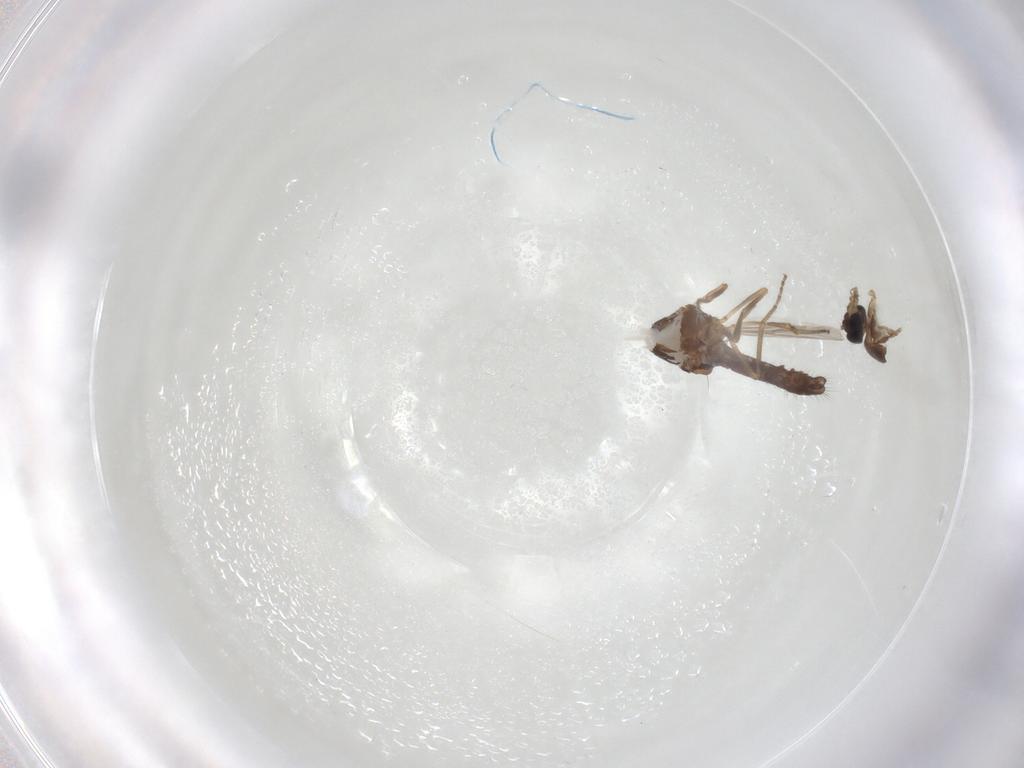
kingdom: Animalia
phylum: Arthropoda
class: Insecta
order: Diptera
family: Ceratopogonidae
